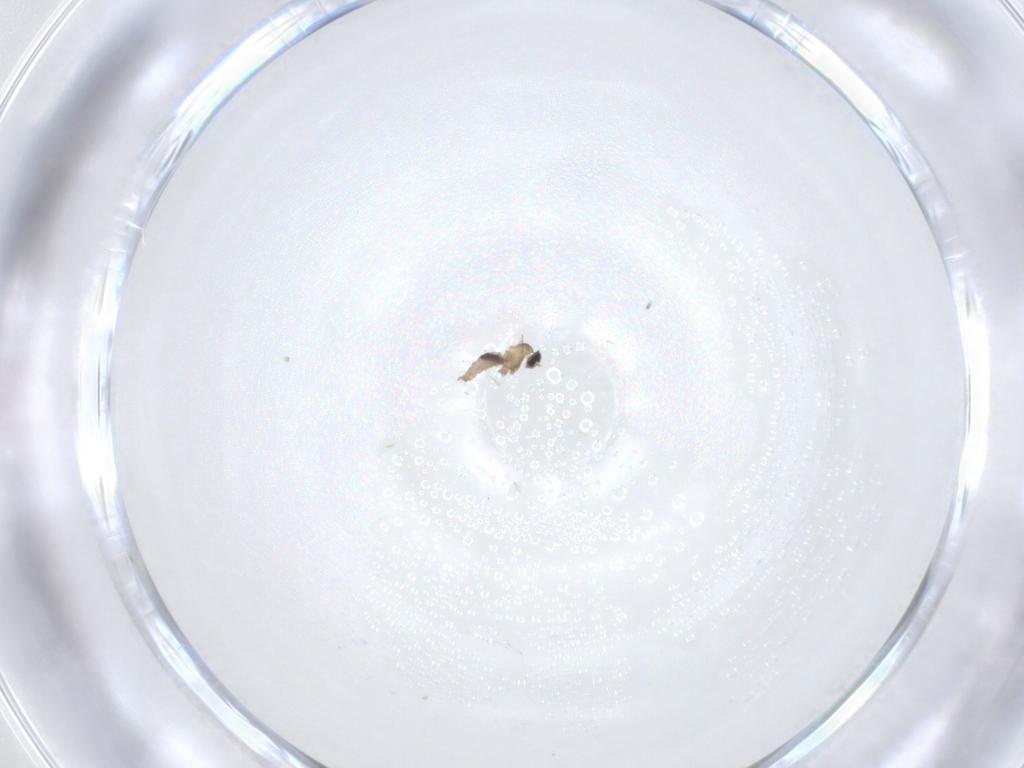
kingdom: Animalia
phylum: Arthropoda
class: Insecta
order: Diptera
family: Cecidomyiidae
